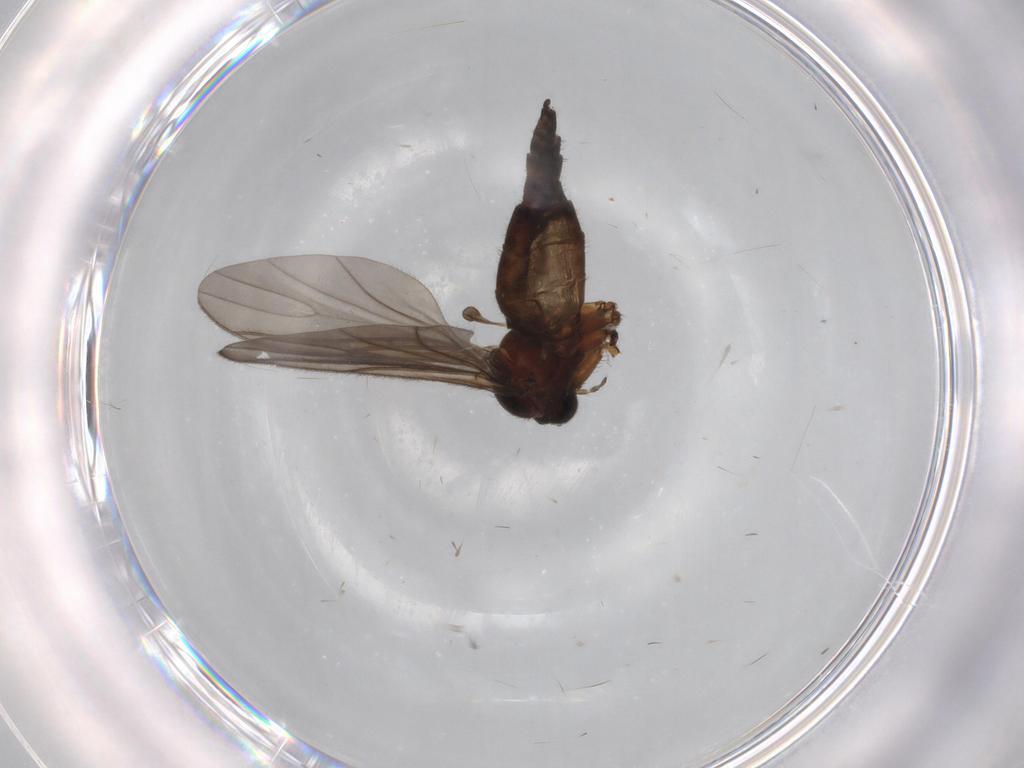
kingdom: Animalia
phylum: Arthropoda
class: Insecta
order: Diptera
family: Sciaridae
